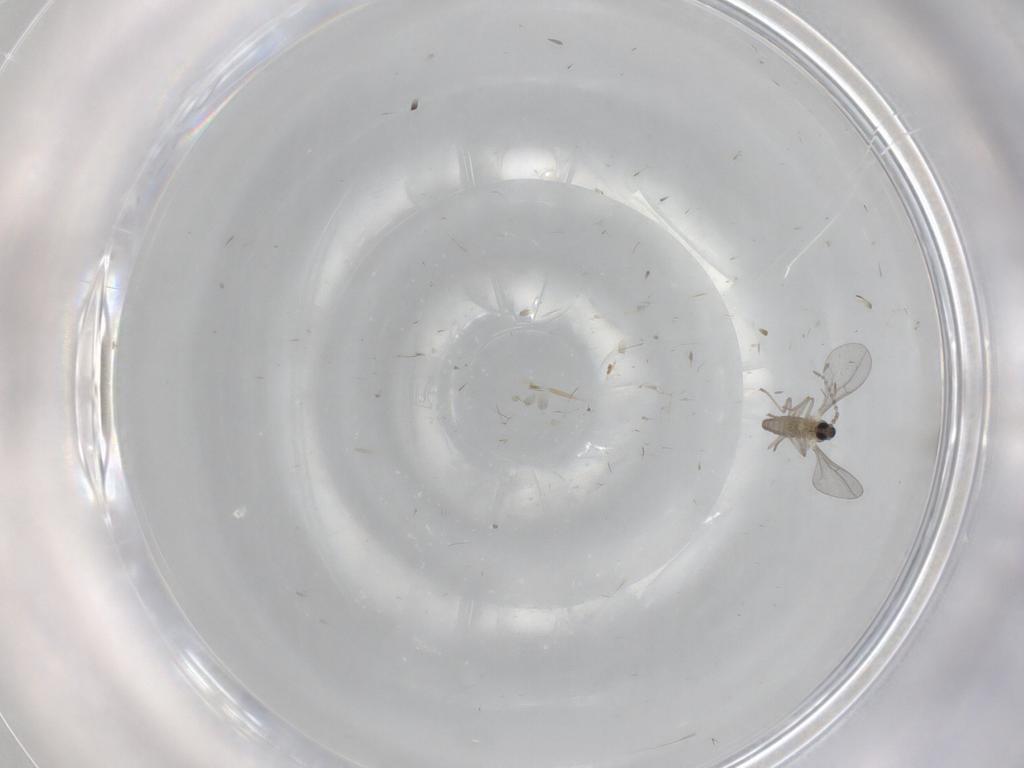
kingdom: Animalia
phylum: Arthropoda
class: Insecta
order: Diptera
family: Cecidomyiidae
